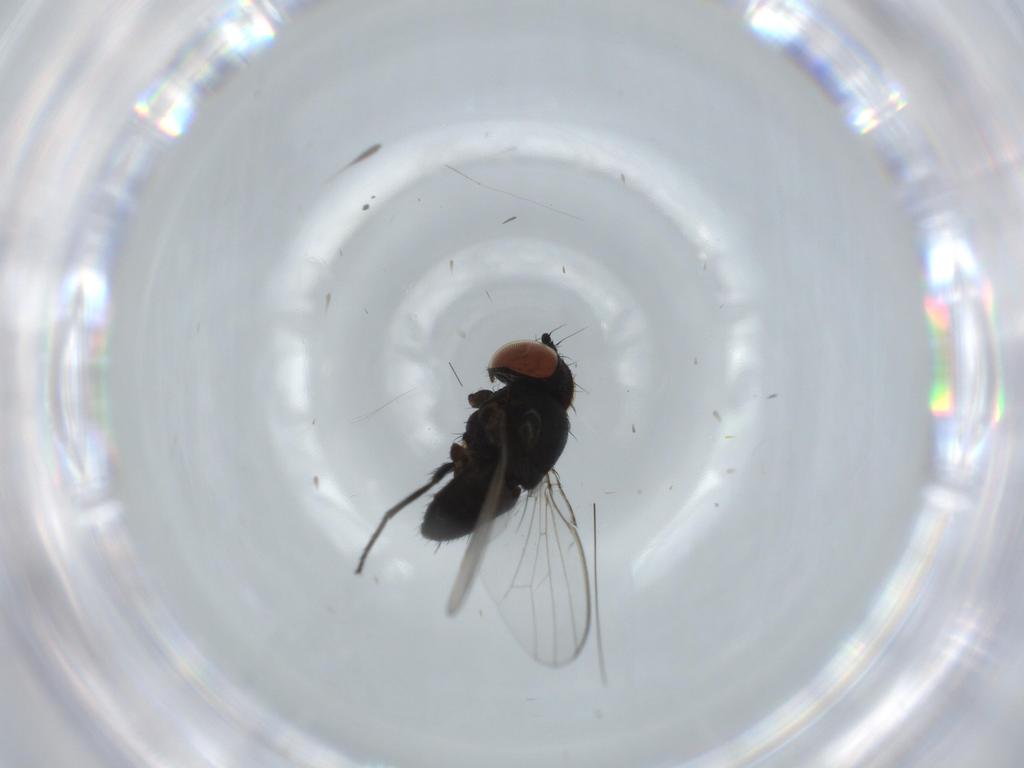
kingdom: Animalia
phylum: Arthropoda
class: Insecta
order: Diptera
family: Milichiidae
